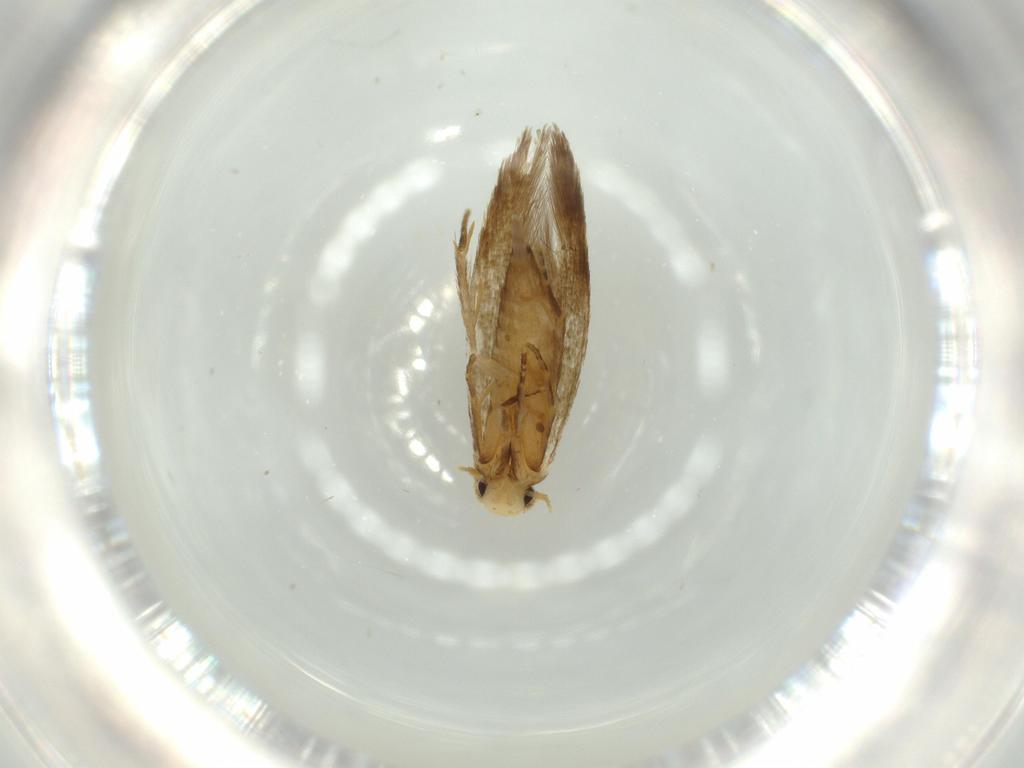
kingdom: Animalia
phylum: Arthropoda
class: Insecta
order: Lepidoptera
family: Tineidae
